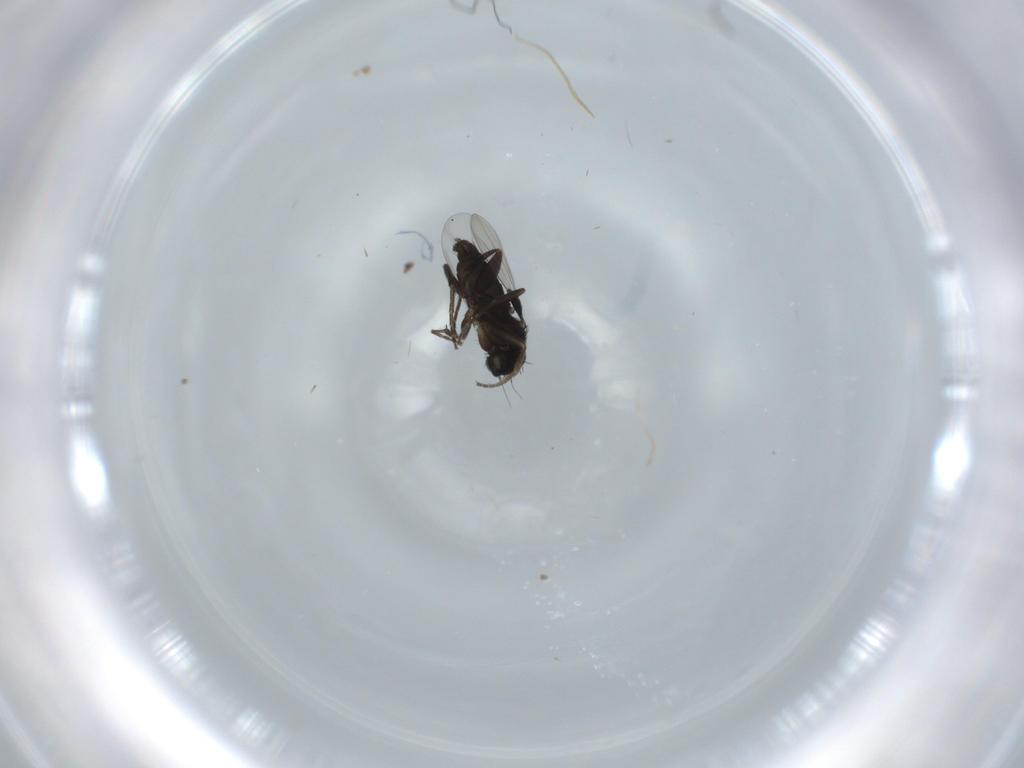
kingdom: Animalia
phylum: Arthropoda
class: Insecta
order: Diptera
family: Phoridae
